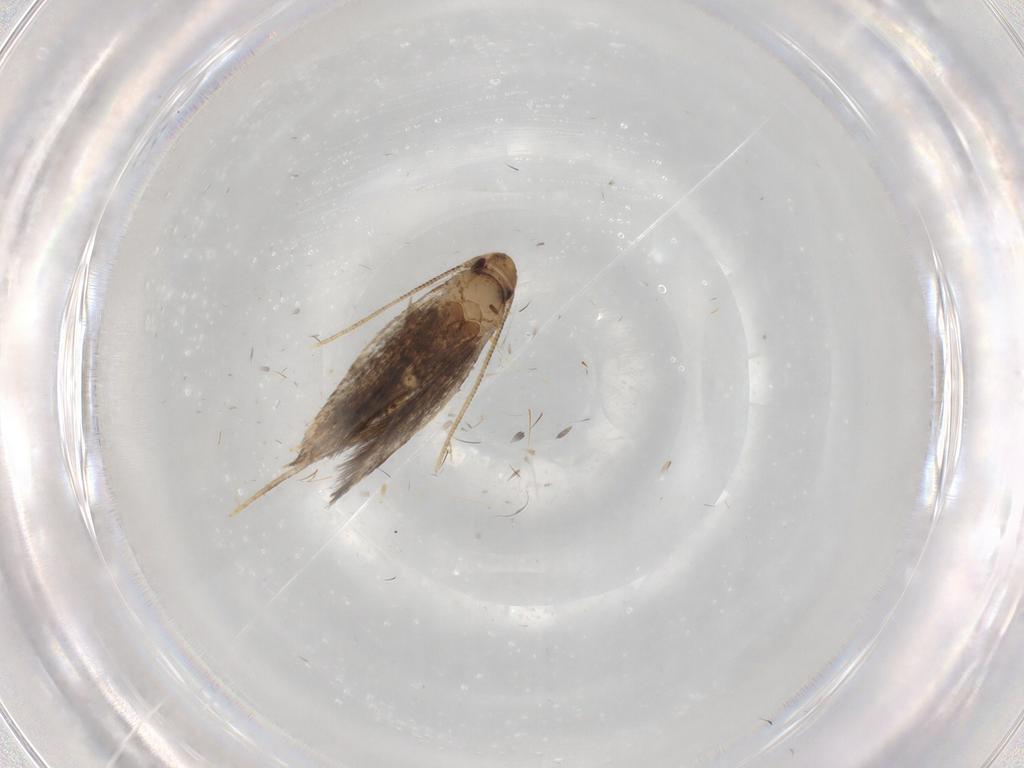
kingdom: Animalia
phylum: Arthropoda
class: Insecta
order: Lepidoptera
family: Gelechiidae
